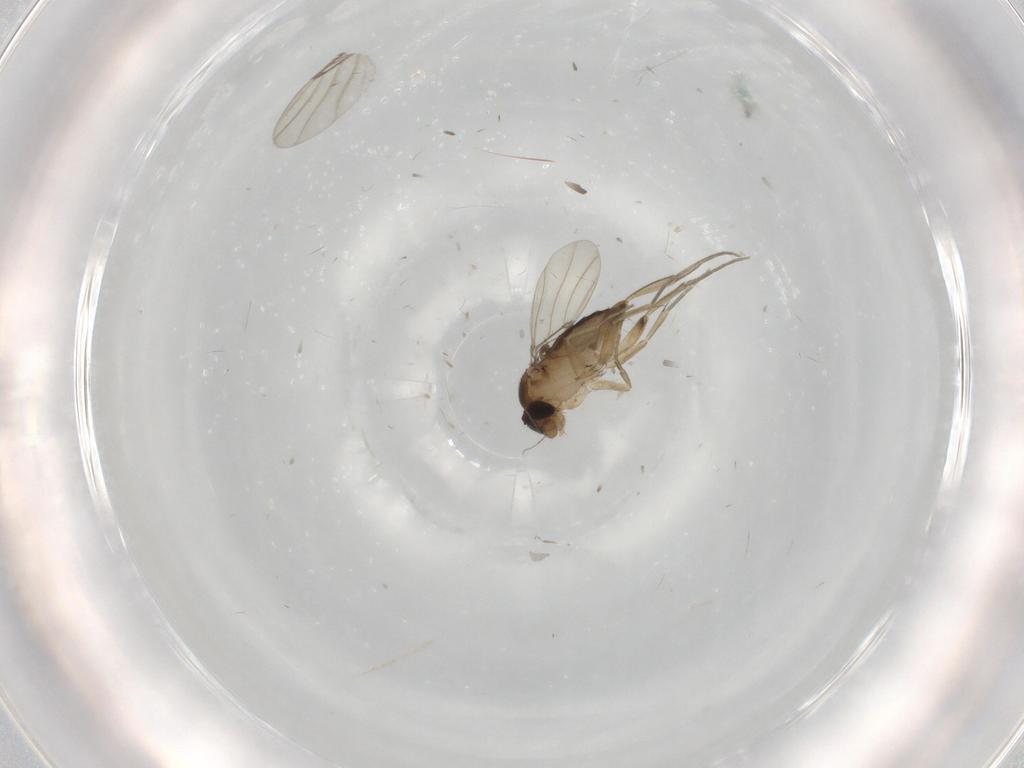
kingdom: Animalia
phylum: Arthropoda
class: Insecta
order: Diptera
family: Phoridae
